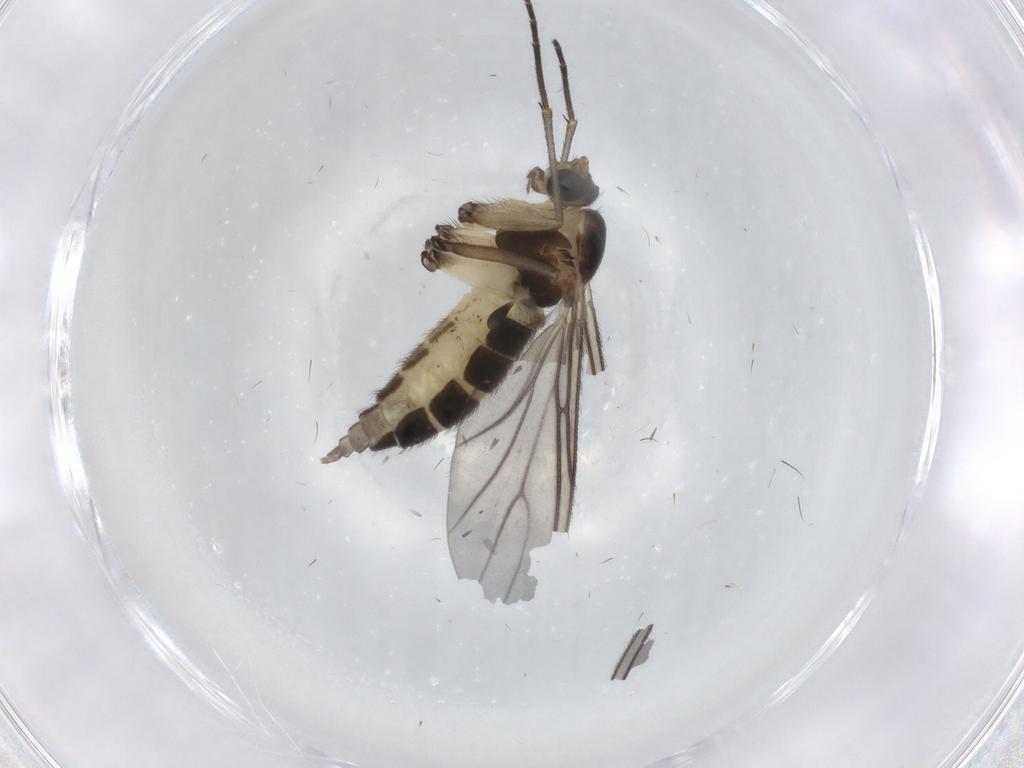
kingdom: Animalia
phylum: Arthropoda
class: Insecta
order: Diptera
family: Sciaridae
